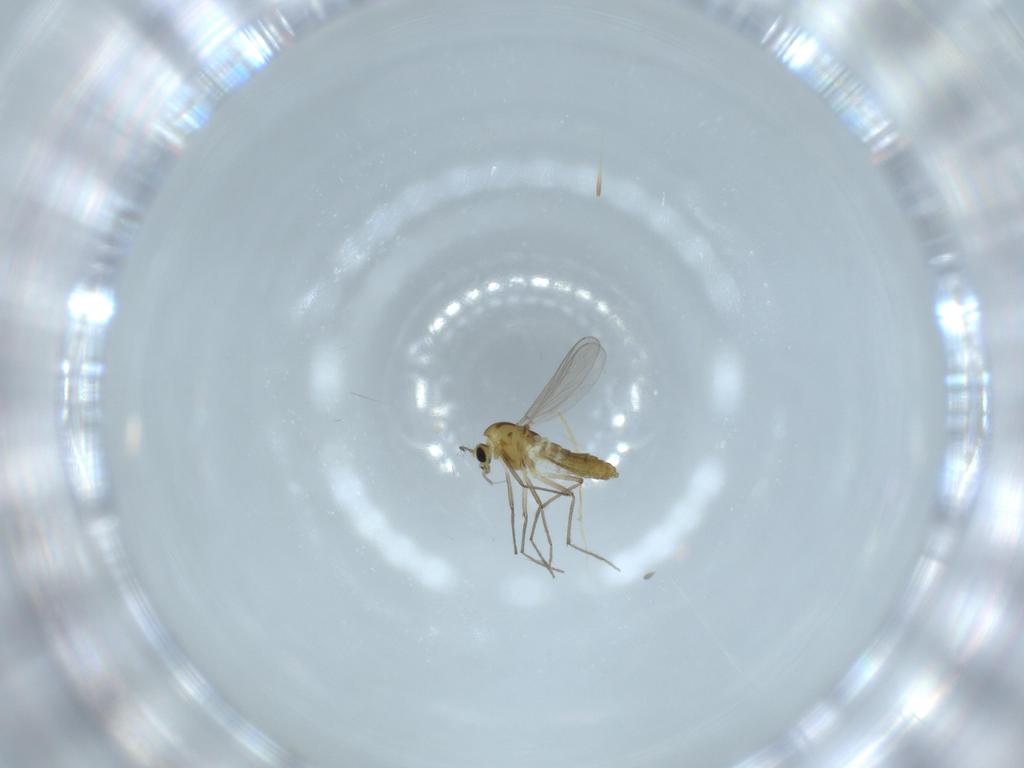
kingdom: Animalia
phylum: Arthropoda
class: Insecta
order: Diptera
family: Chironomidae
